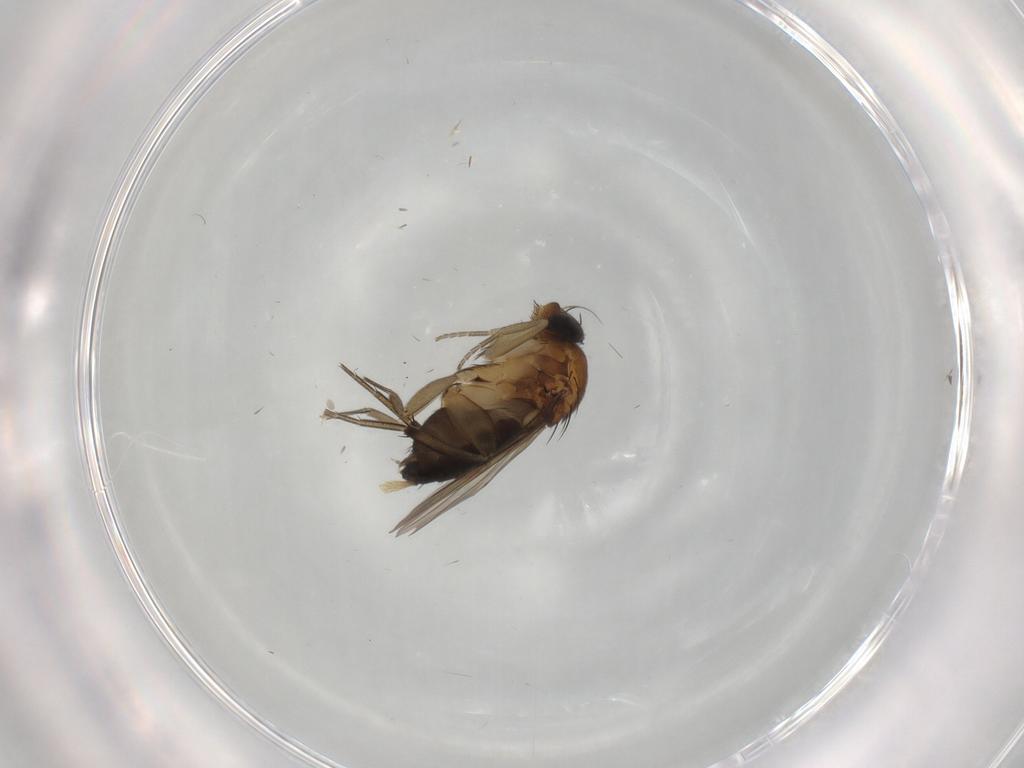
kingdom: Animalia
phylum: Arthropoda
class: Insecta
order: Diptera
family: Cecidomyiidae
